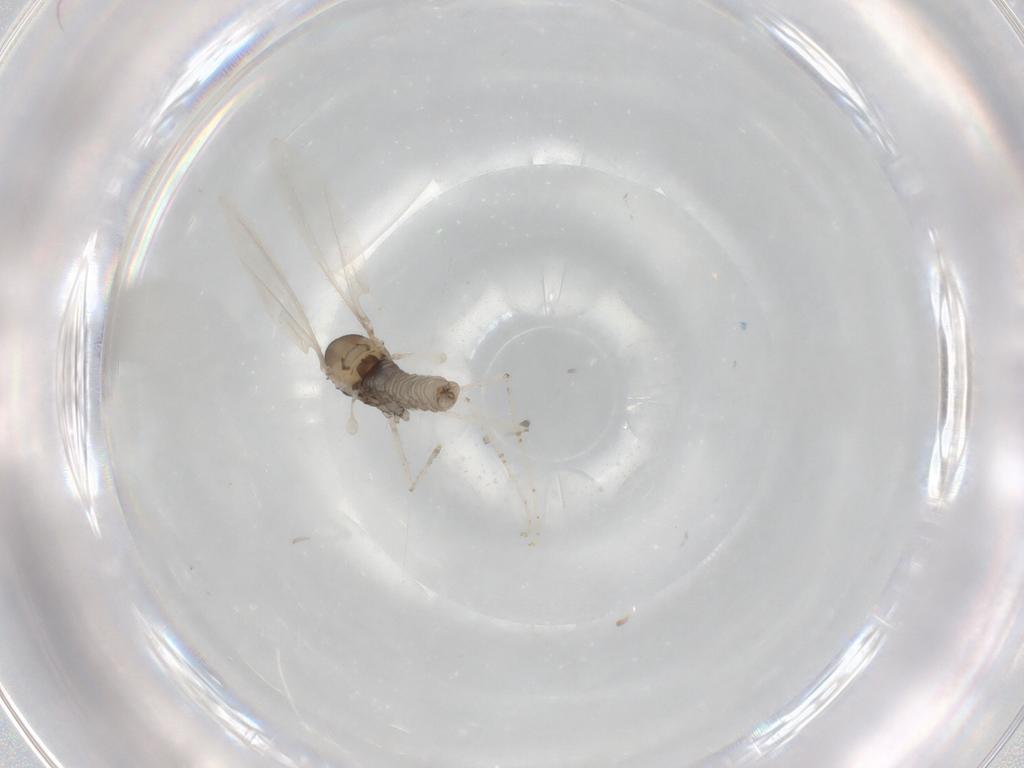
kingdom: Animalia
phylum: Arthropoda
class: Insecta
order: Diptera
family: Cecidomyiidae
